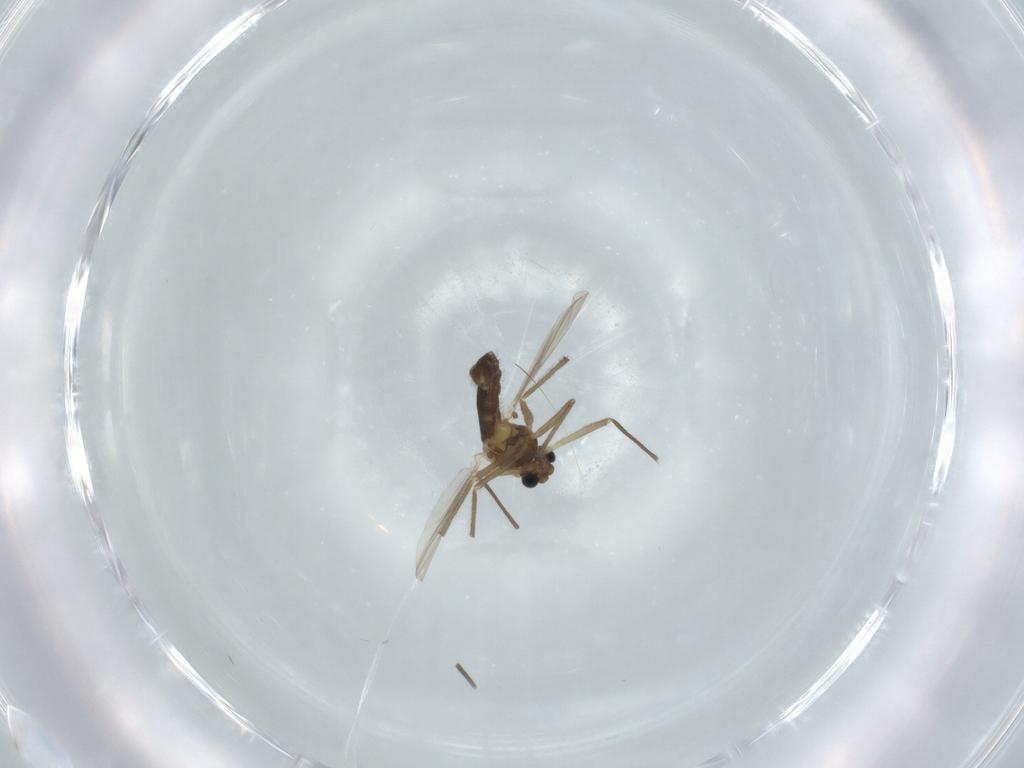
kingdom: Animalia
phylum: Arthropoda
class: Insecta
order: Diptera
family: Chironomidae
